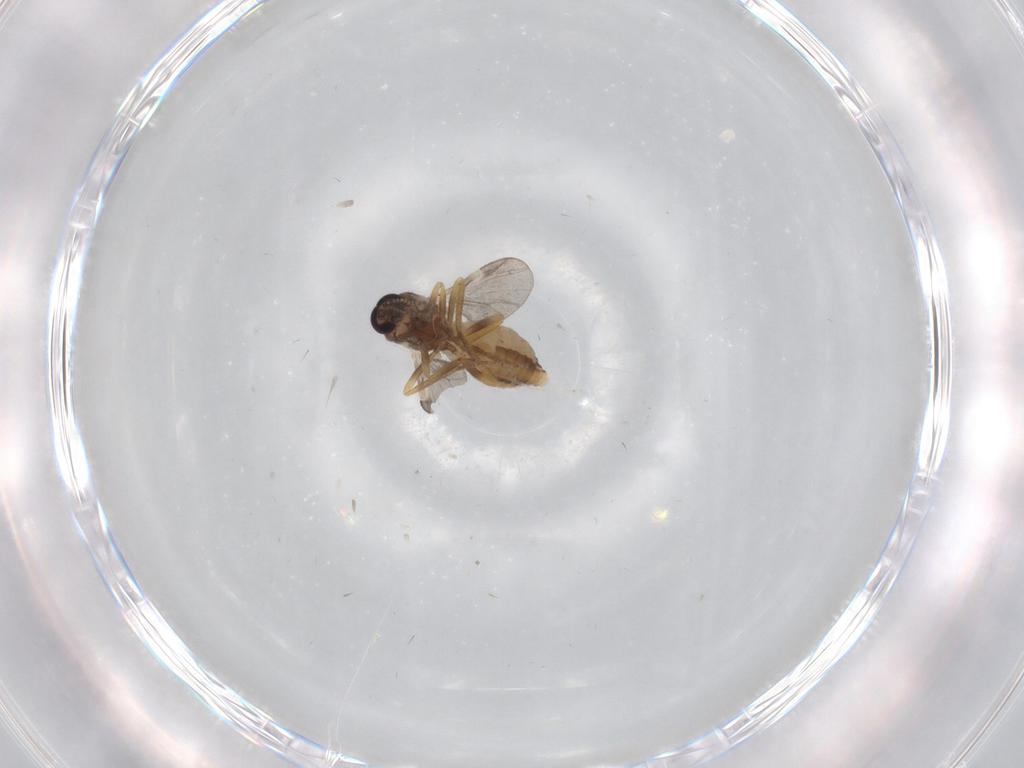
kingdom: Animalia
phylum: Arthropoda
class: Insecta
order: Diptera
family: Ceratopogonidae
